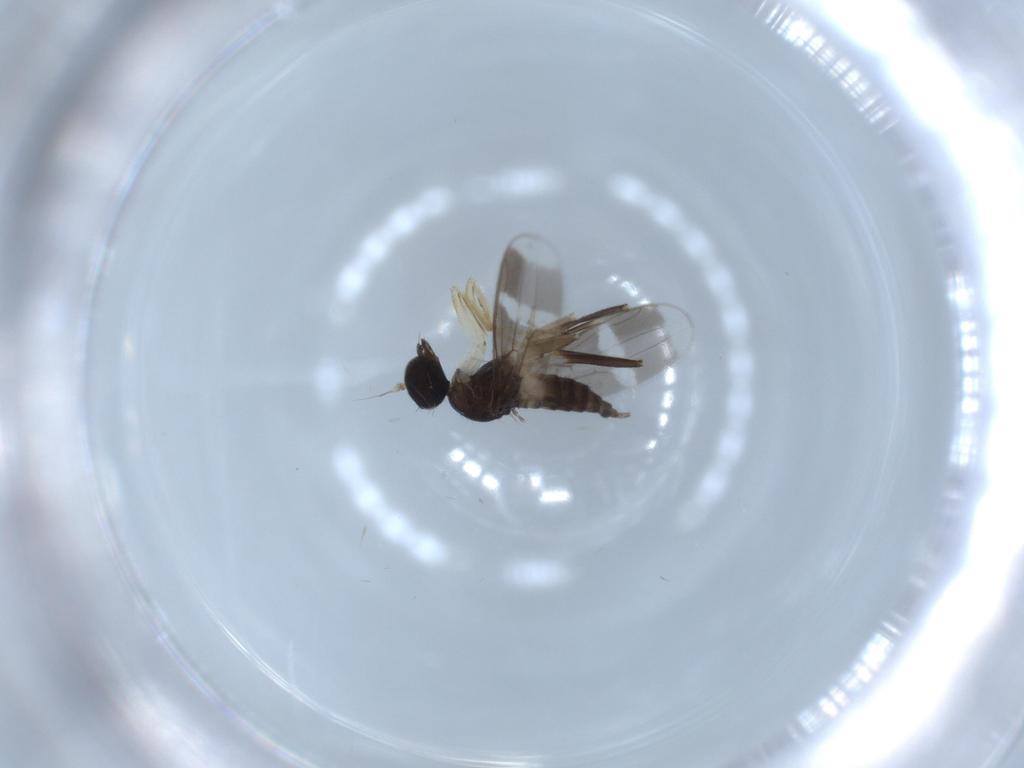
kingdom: Animalia
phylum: Arthropoda
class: Insecta
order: Diptera
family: Hybotidae
